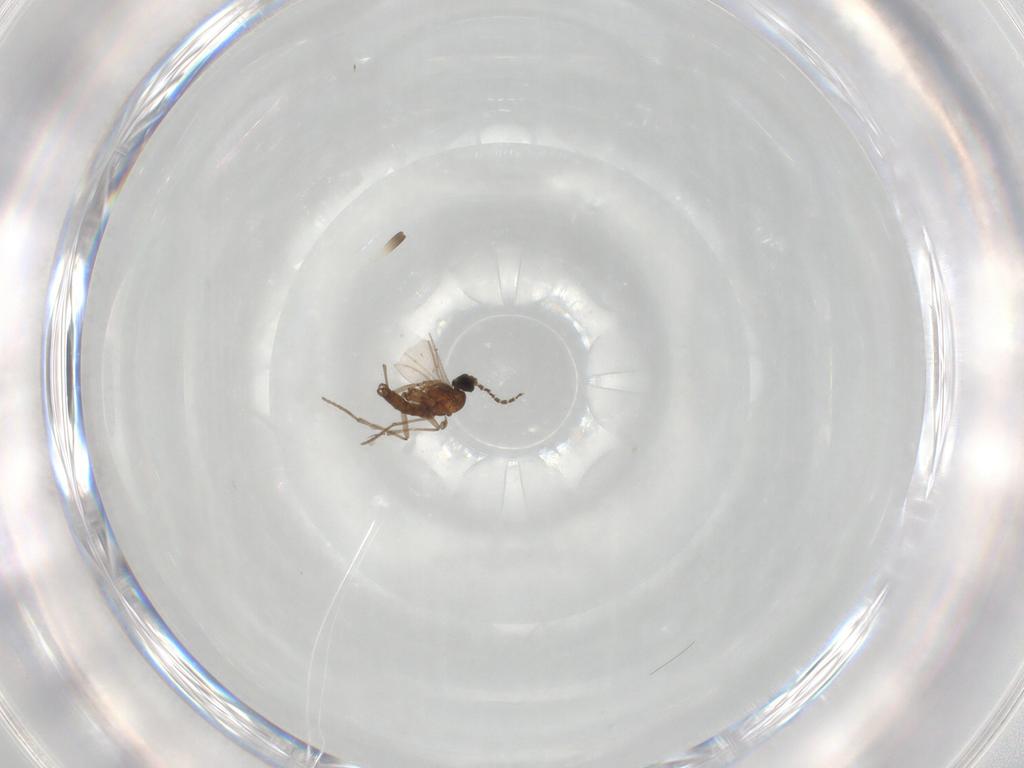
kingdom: Animalia
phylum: Arthropoda
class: Insecta
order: Diptera
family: Sciaridae
